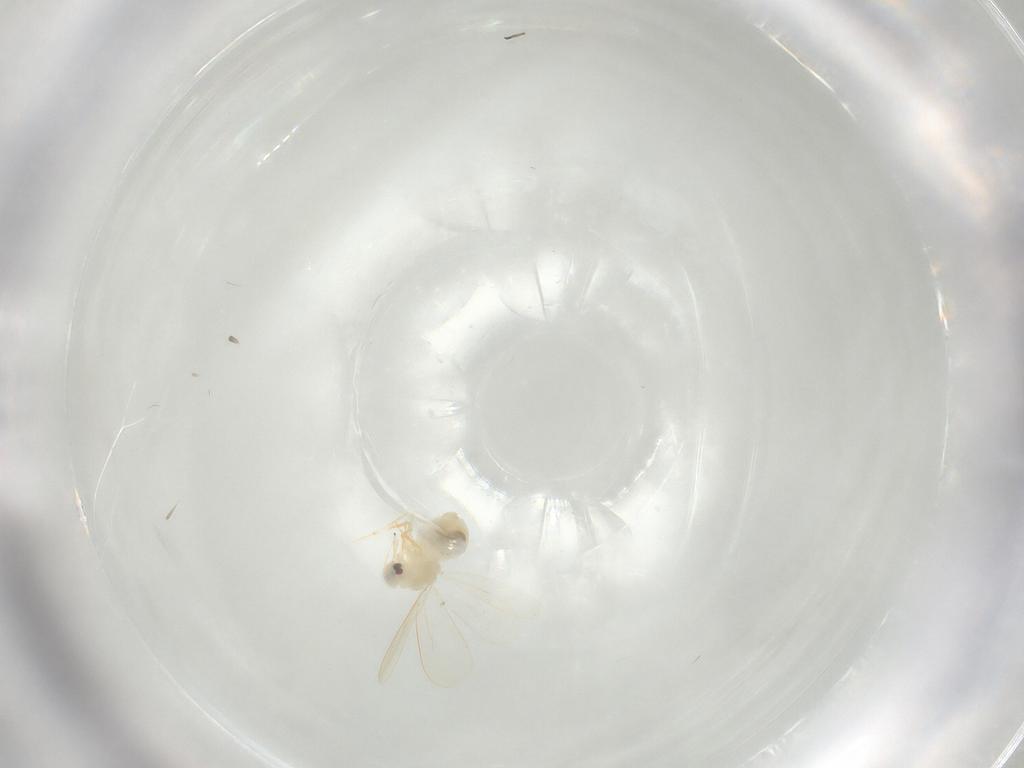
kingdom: Animalia
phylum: Arthropoda
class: Insecta
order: Hemiptera
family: Aleyrodidae
